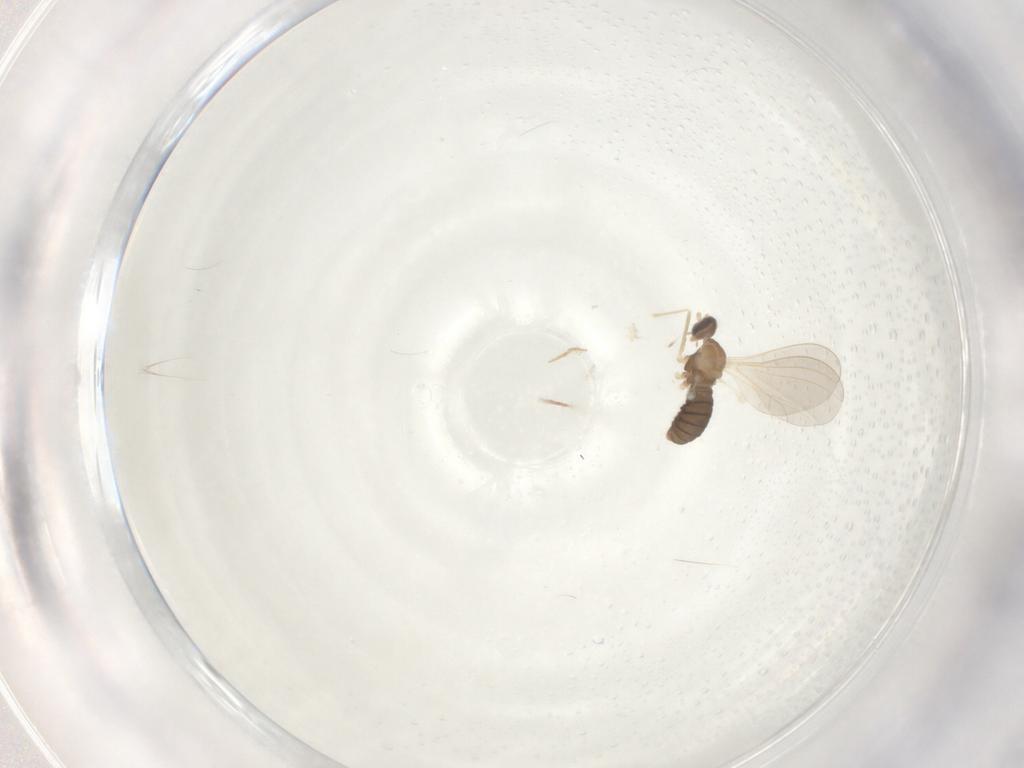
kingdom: Animalia
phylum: Arthropoda
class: Insecta
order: Diptera
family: Cecidomyiidae
